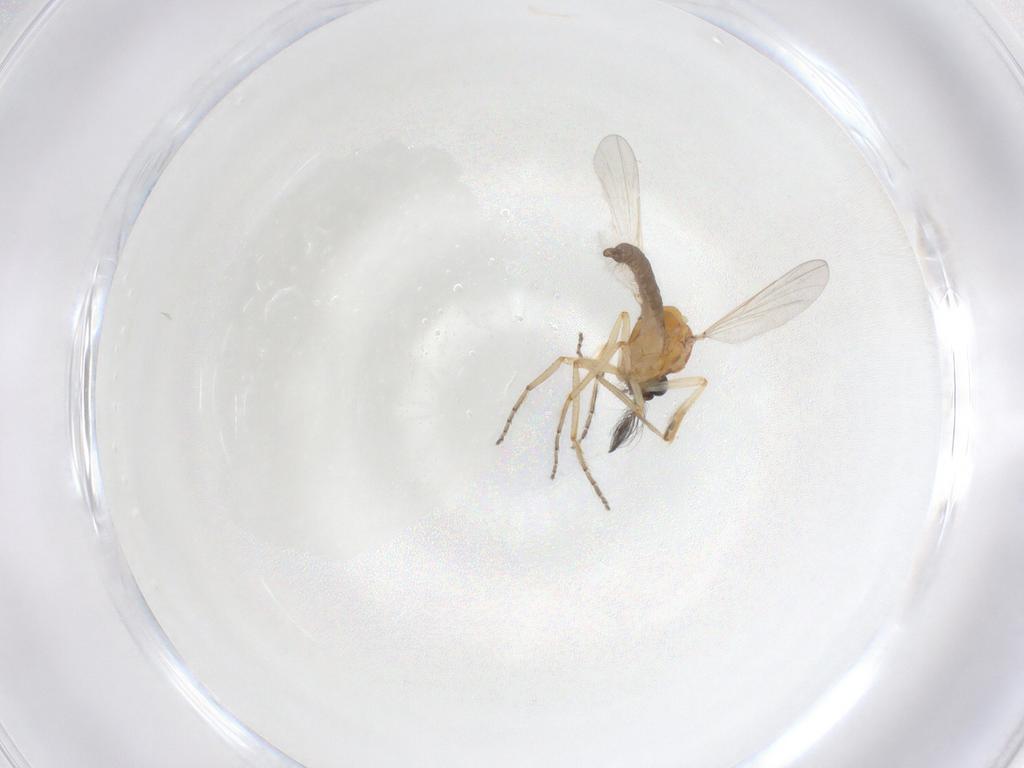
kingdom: Animalia
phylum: Arthropoda
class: Insecta
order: Diptera
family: Ceratopogonidae
